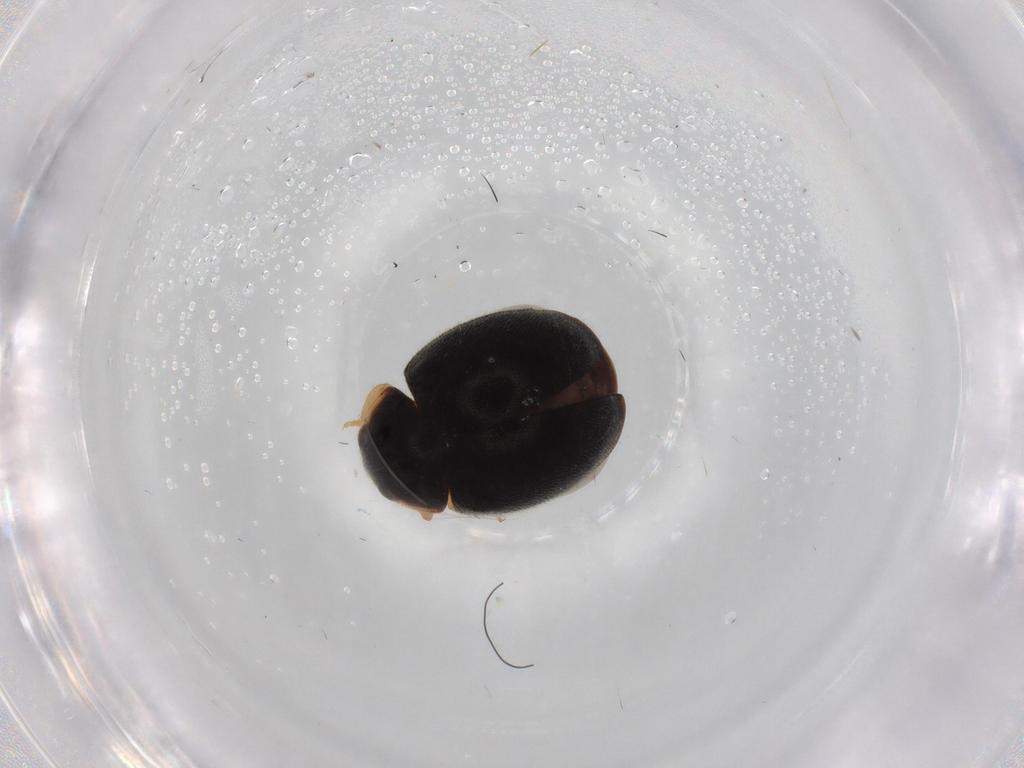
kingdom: Animalia
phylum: Arthropoda
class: Insecta
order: Coleoptera
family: Coccinellidae
